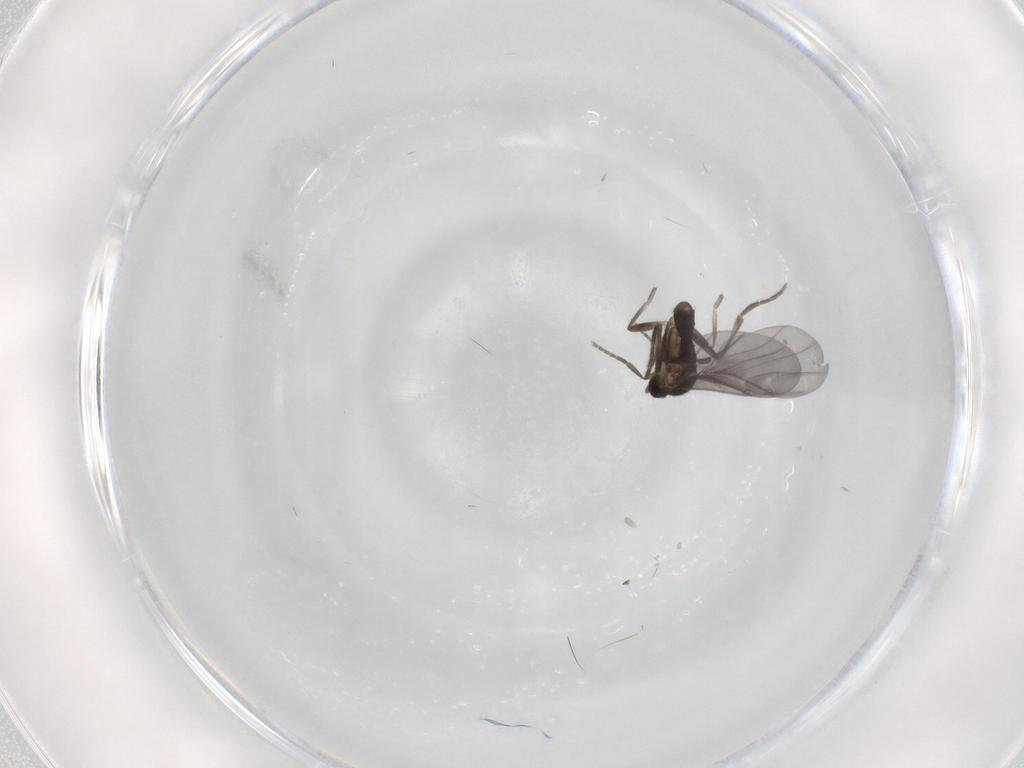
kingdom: Animalia
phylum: Arthropoda
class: Insecta
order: Diptera
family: Phoridae
